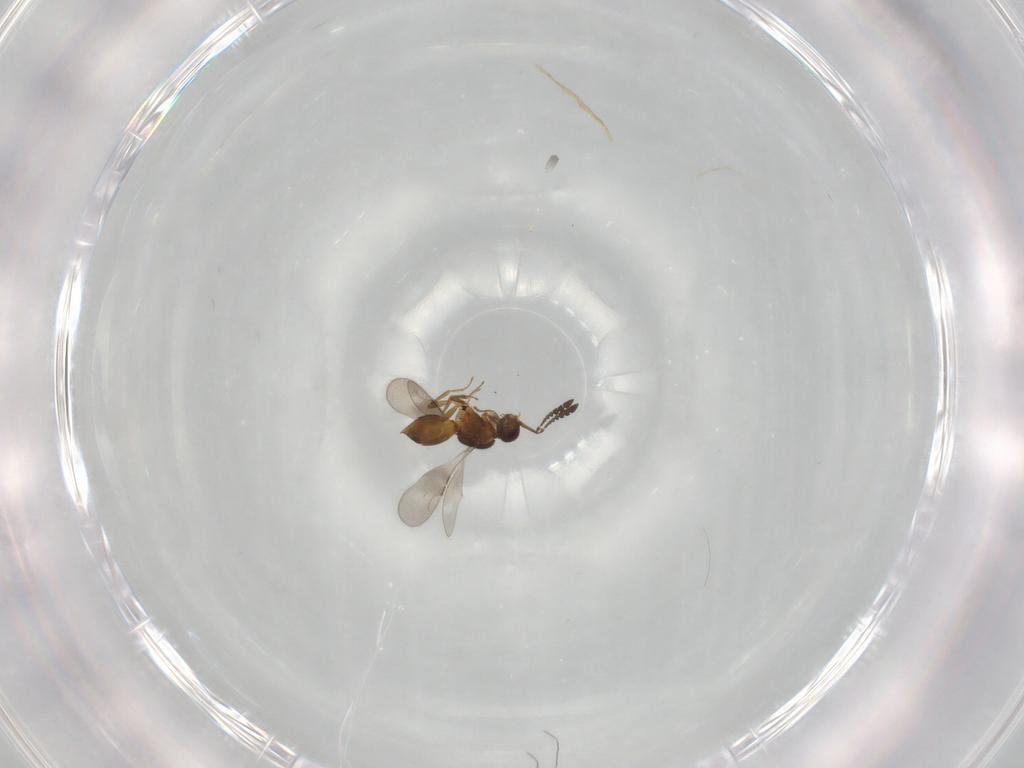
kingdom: Animalia
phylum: Arthropoda
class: Insecta
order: Hymenoptera
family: Ceraphronidae
